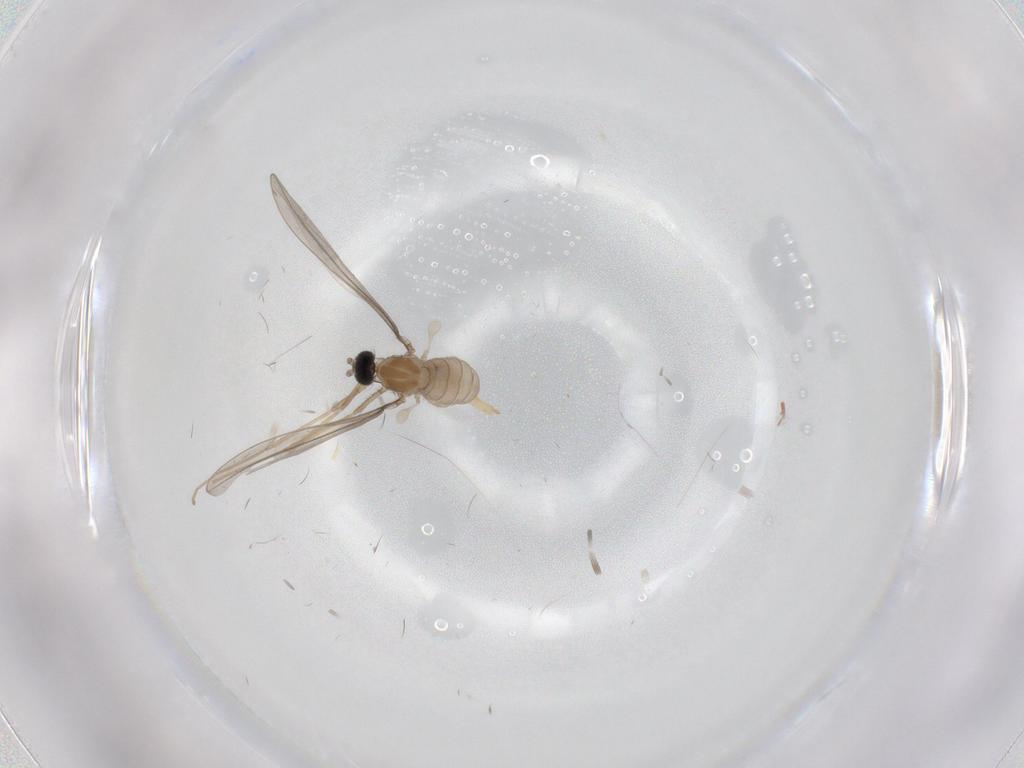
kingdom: Animalia
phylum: Arthropoda
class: Insecta
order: Diptera
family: Cecidomyiidae
